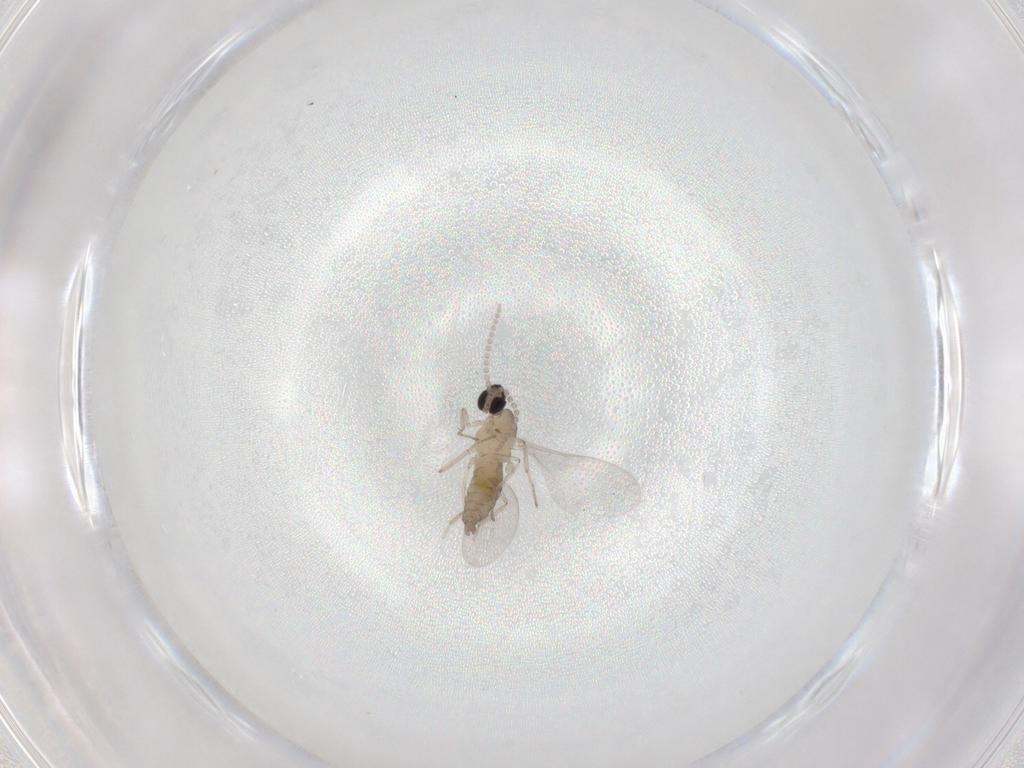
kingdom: Animalia
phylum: Arthropoda
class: Insecta
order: Diptera
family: Cecidomyiidae
